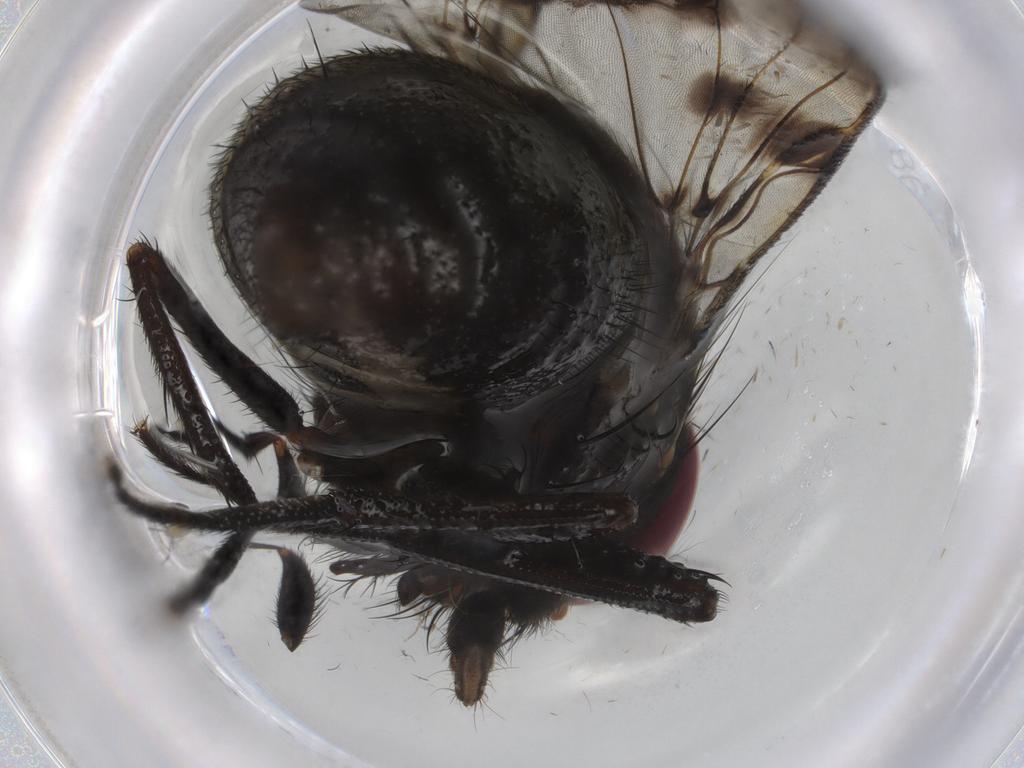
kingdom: Animalia
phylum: Arthropoda
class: Insecta
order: Diptera
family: Muscidae
